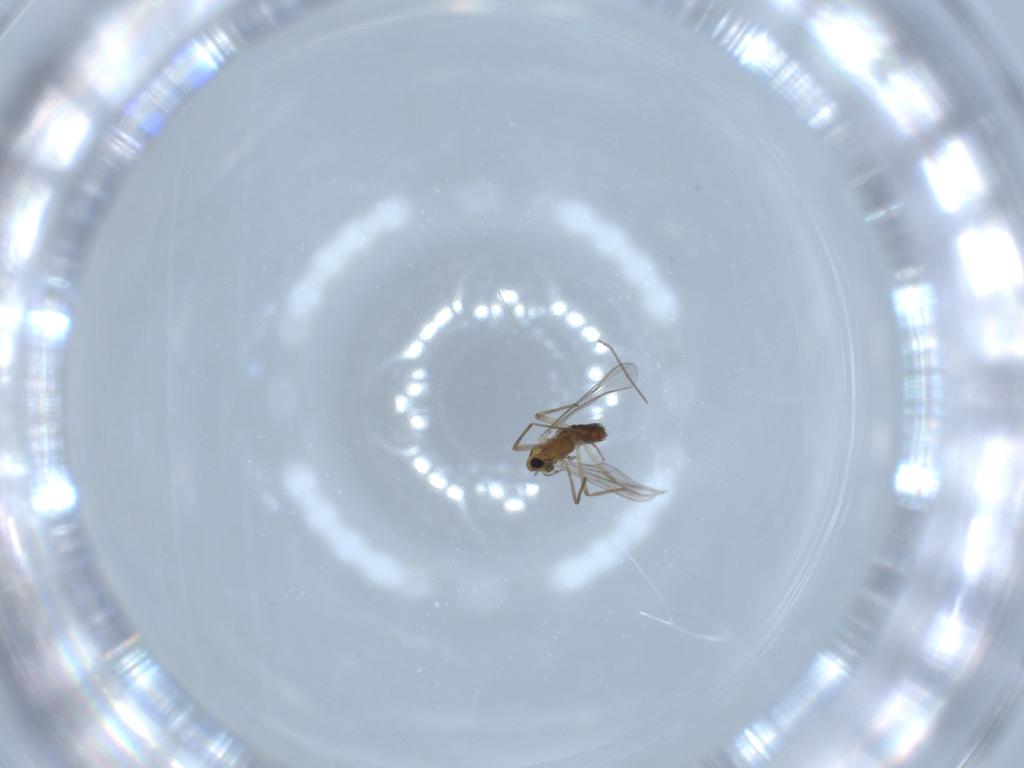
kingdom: Animalia
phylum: Arthropoda
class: Insecta
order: Diptera
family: Chironomidae
